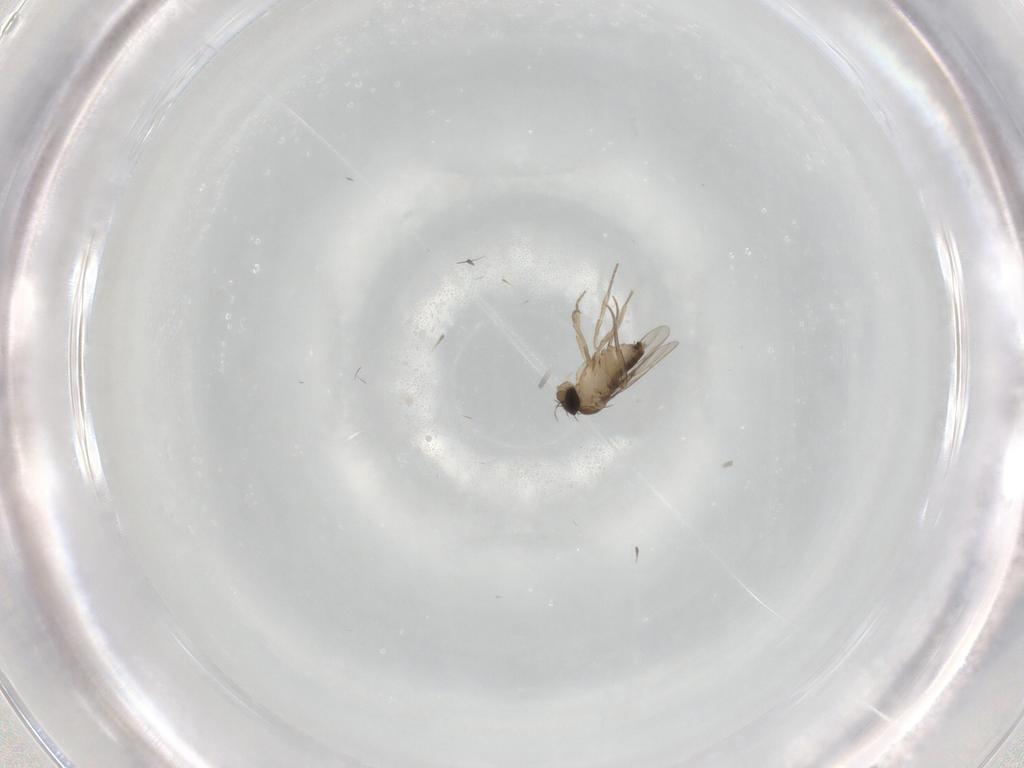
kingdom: Animalia
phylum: Arthropoda
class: Insecta
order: Diptera
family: Phoridae
